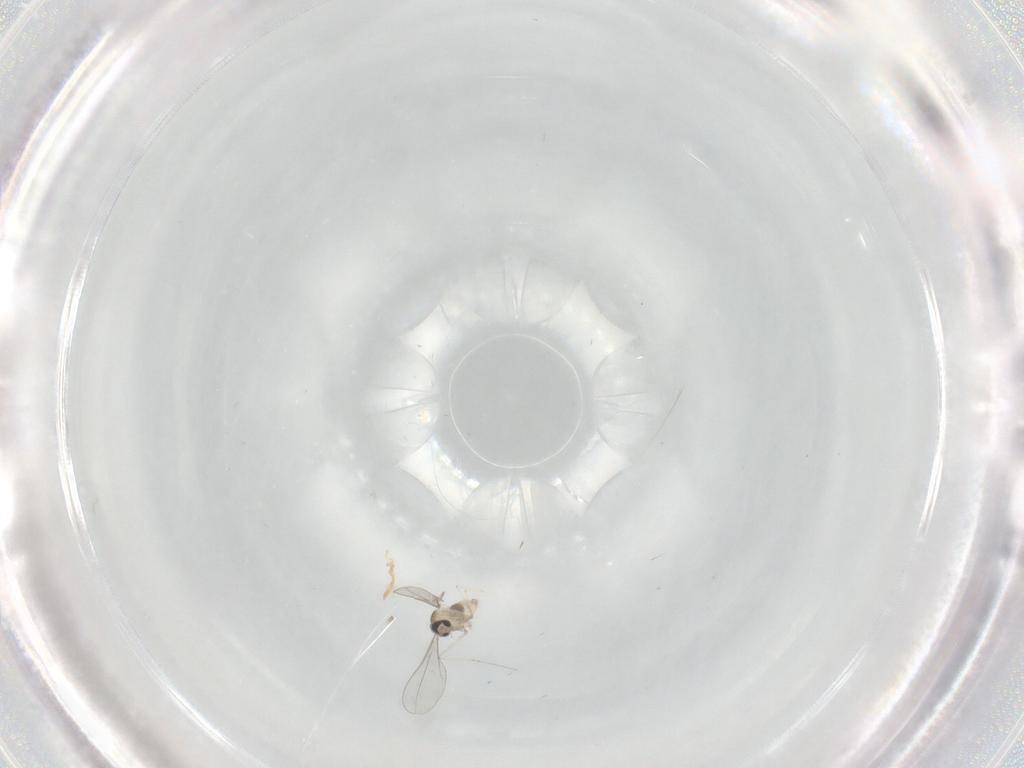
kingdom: Animalia
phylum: Arthropoda
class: Insecta
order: Diptera
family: Cecidomyiidae
